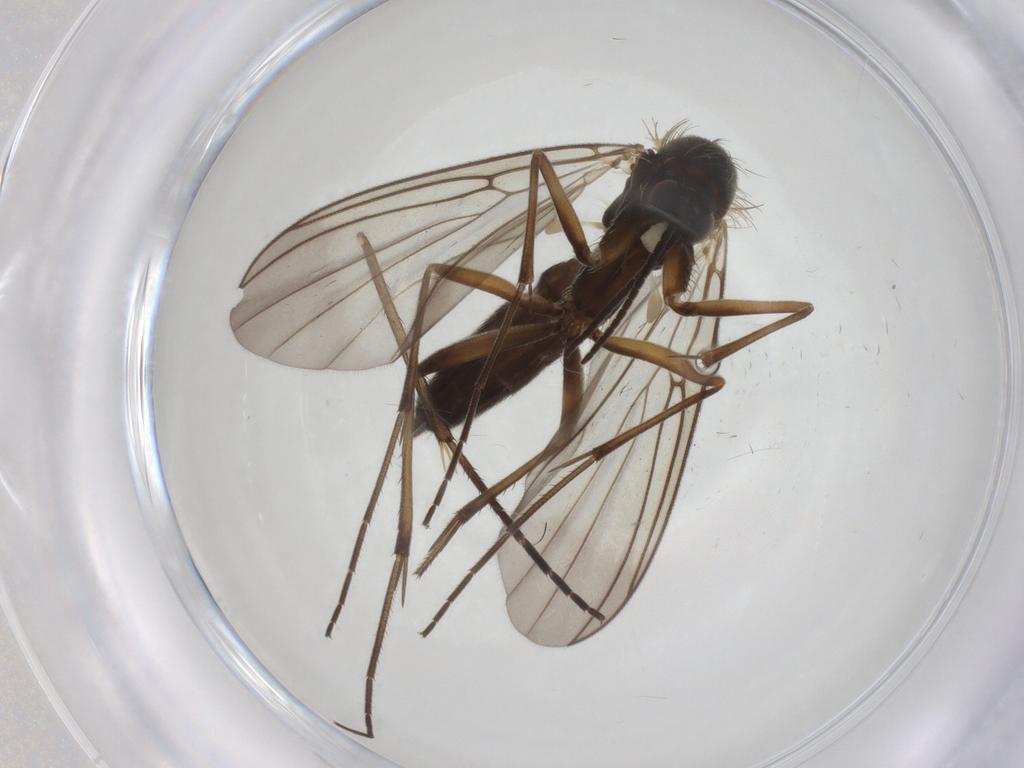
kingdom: Animalia
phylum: Arthropoda
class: Insecta
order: Diptera
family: Mycetophilidae
